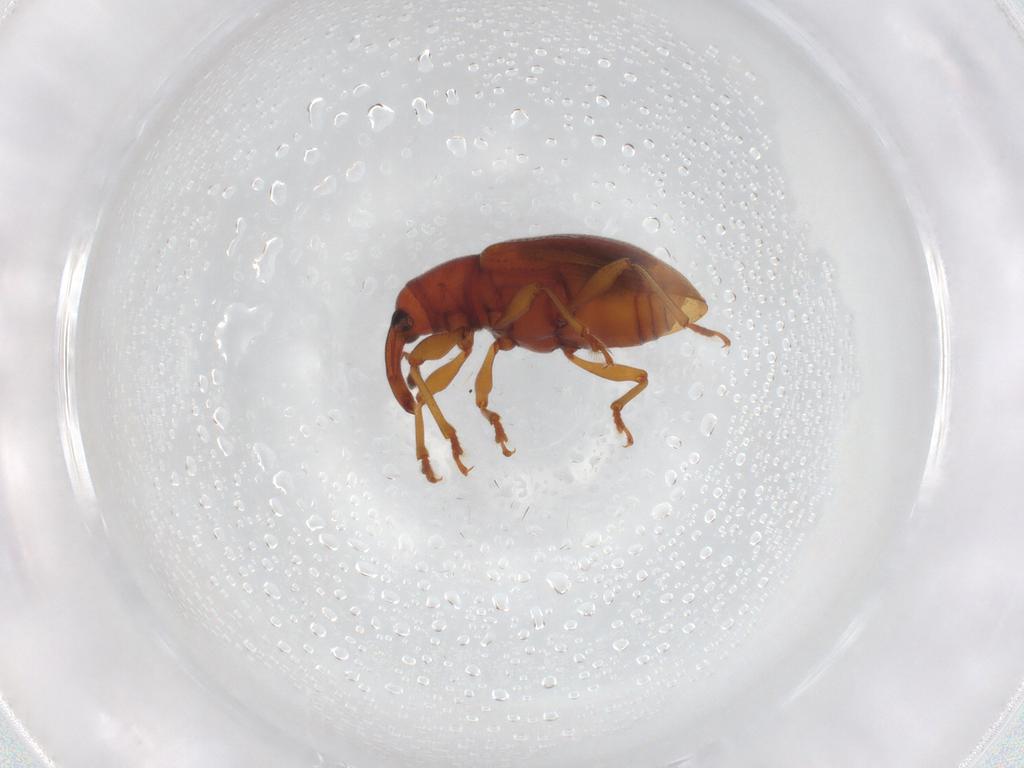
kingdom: Animalia
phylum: Arthropoda
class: Insecta
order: Coleoptera
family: Curculionidae
